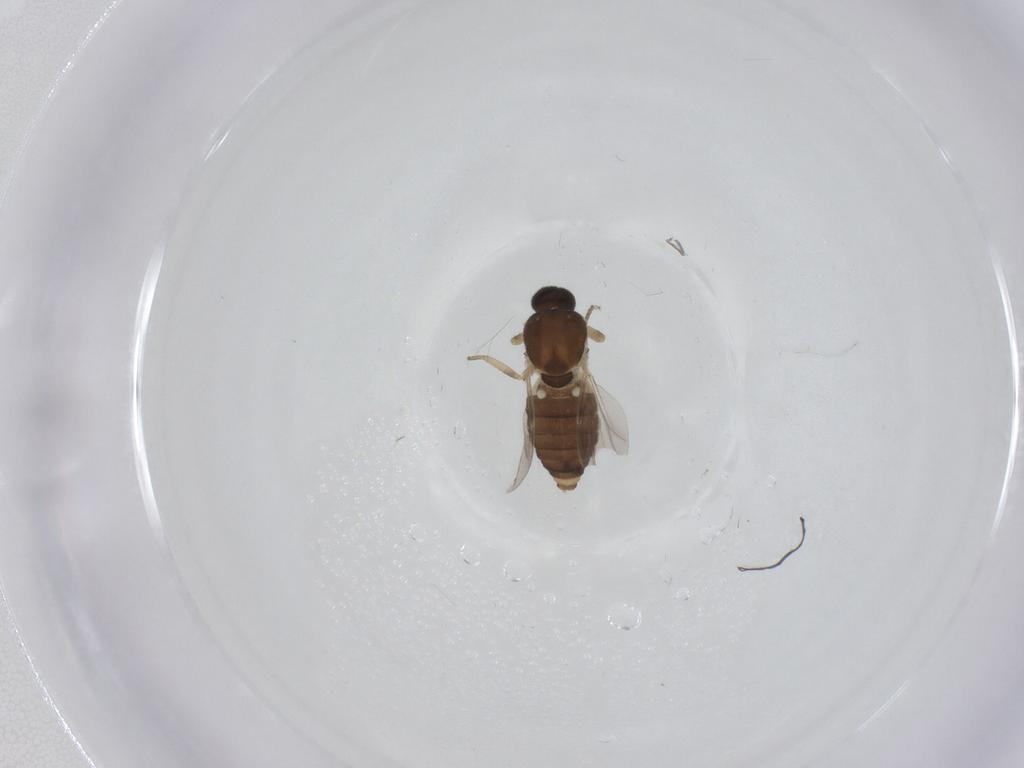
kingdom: Animalia
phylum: Arthropoda
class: Insecta
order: Diptera
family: Ceratopogonidae
